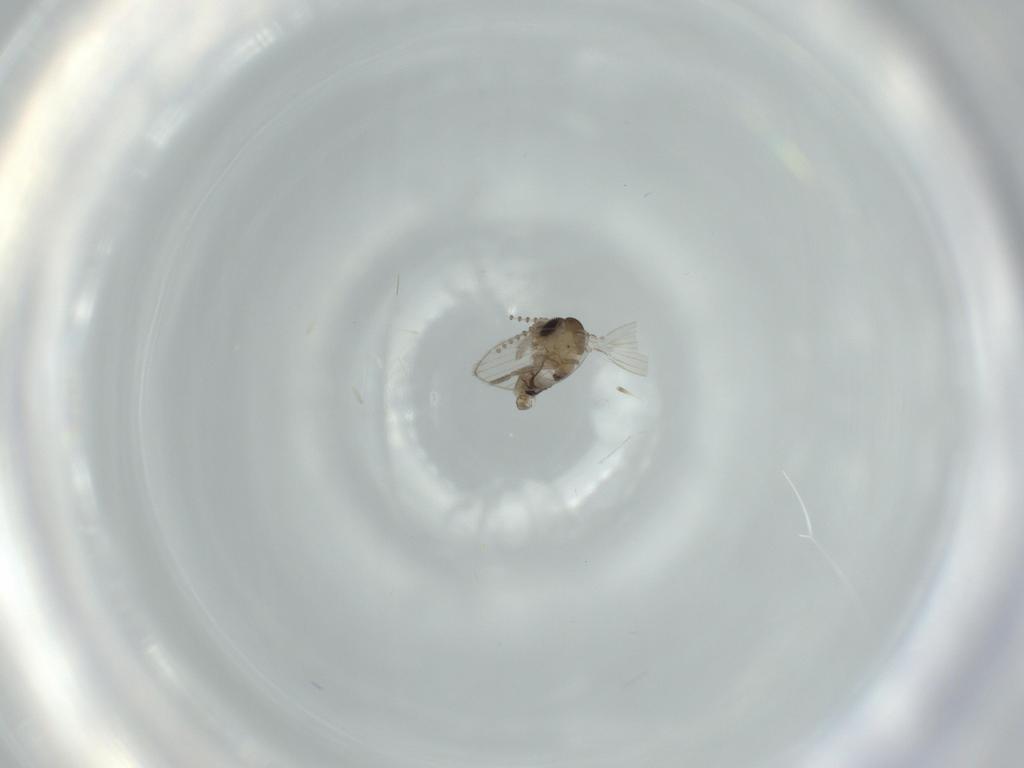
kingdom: Animalia
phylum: Arthropoda
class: Insecta
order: Diptera
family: Psychodidae
